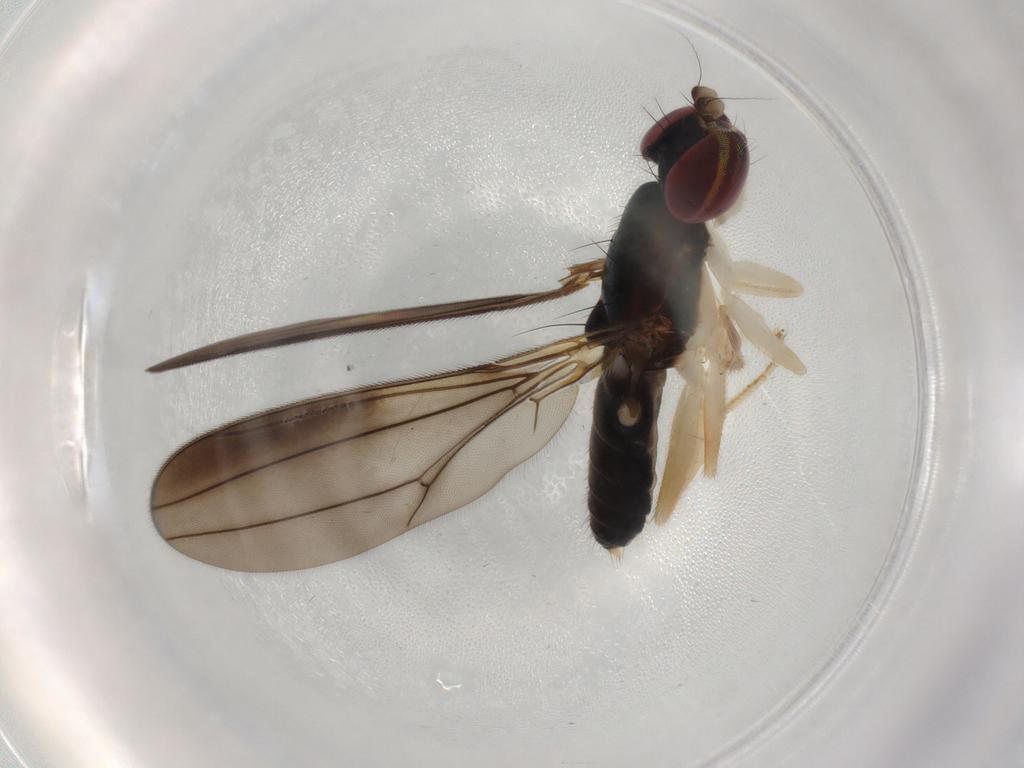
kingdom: Animalia
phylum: Arthropoda
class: Insecta
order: Diptera
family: Aulacigastridae
